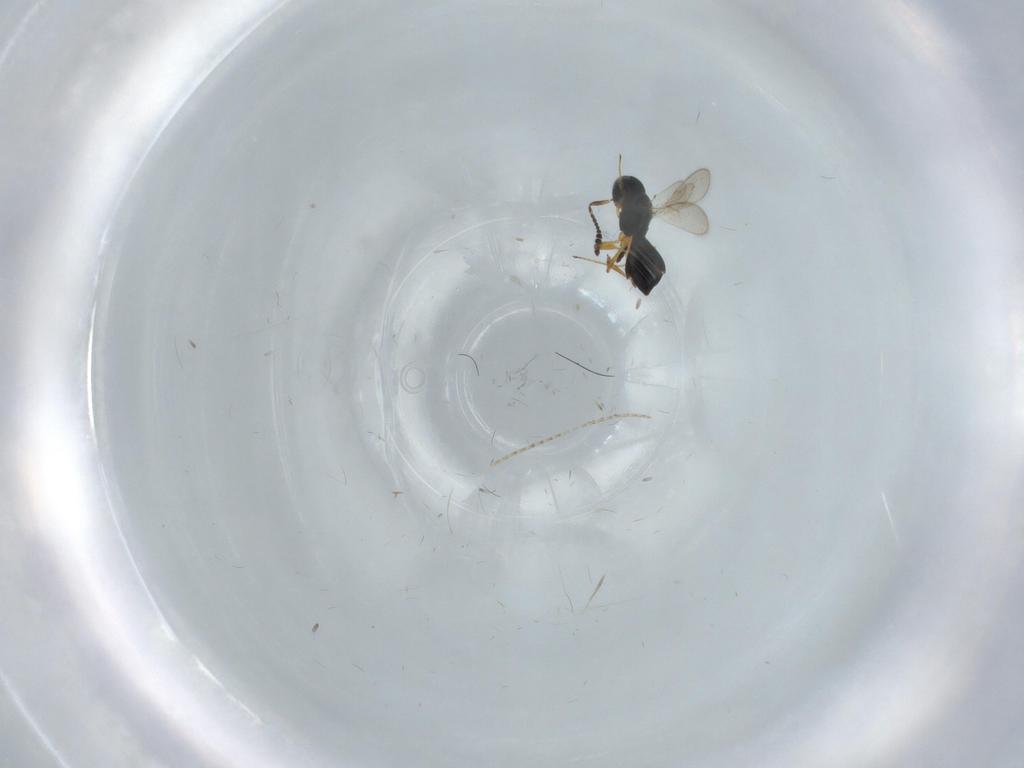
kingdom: Animalia
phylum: Arthropoda
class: Insecta
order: Hymenoptera
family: Scelionidae
